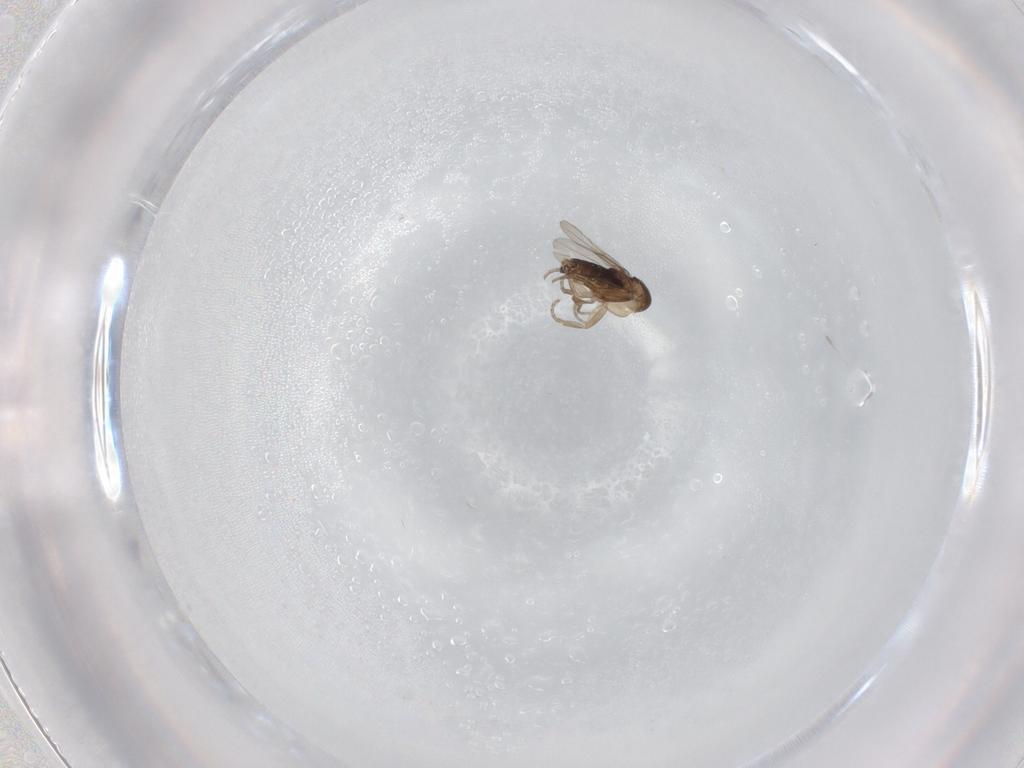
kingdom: Animalia
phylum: Arthropoda
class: Insecta
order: Diptera
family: Phoridae
